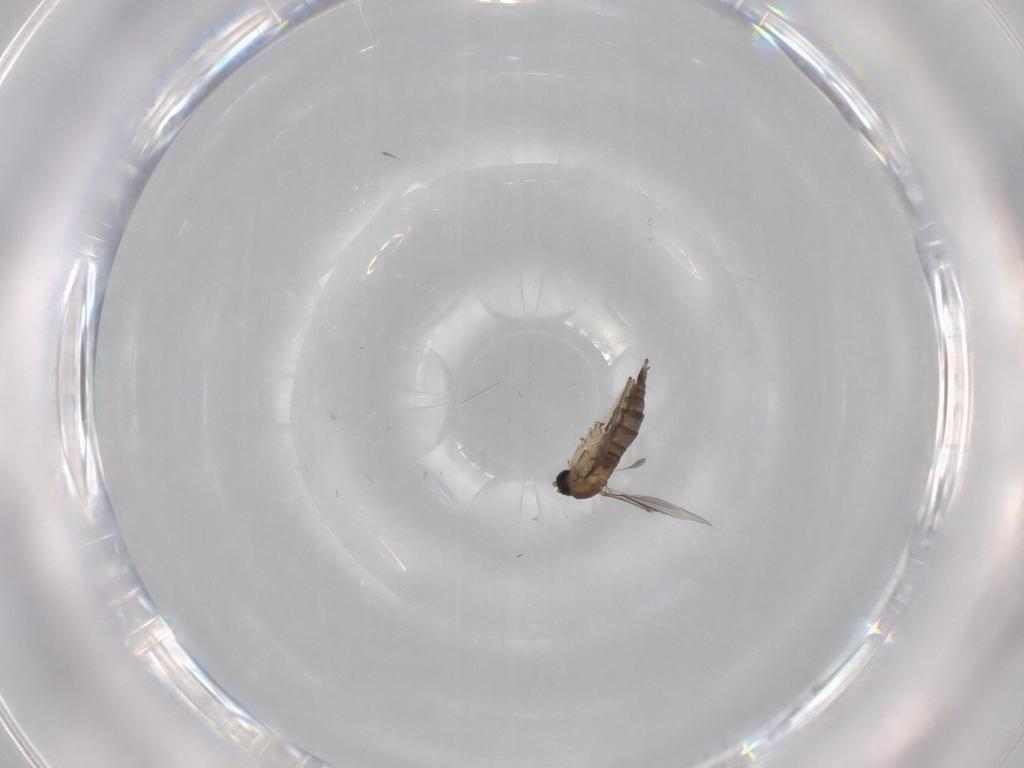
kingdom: Animalia
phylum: Arthropoda
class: Insecta
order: Diptera
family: Sciaridae
